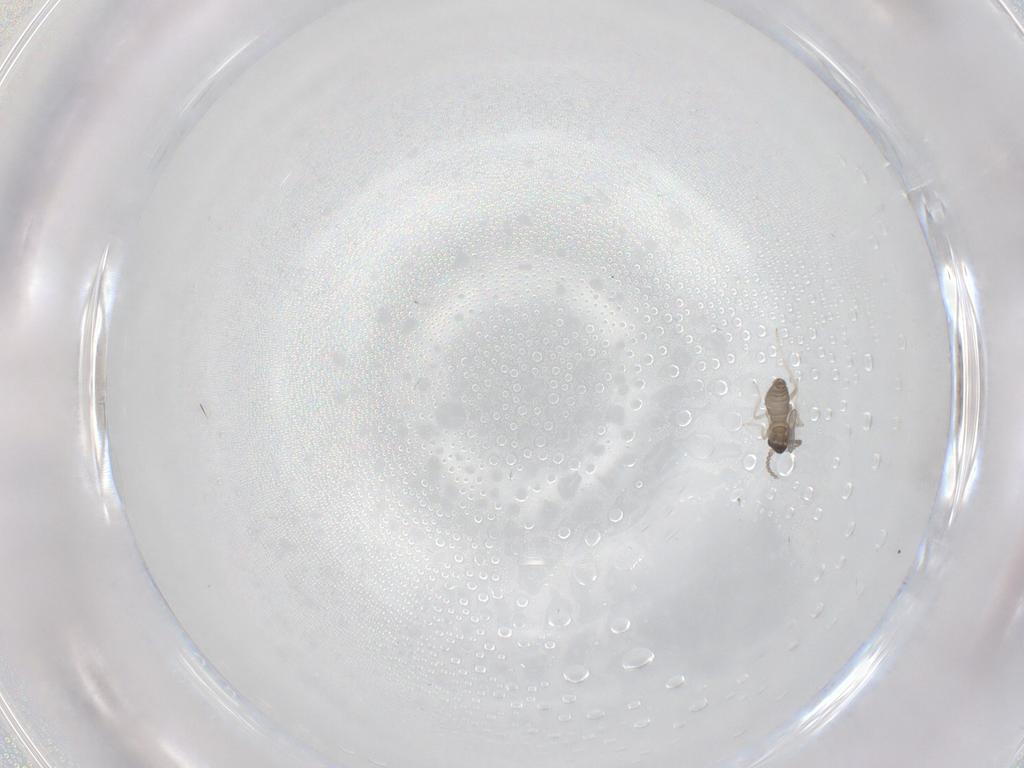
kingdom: Animalia
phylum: Arthropoda
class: Insecta
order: Diptera
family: Cecidomyiidae
